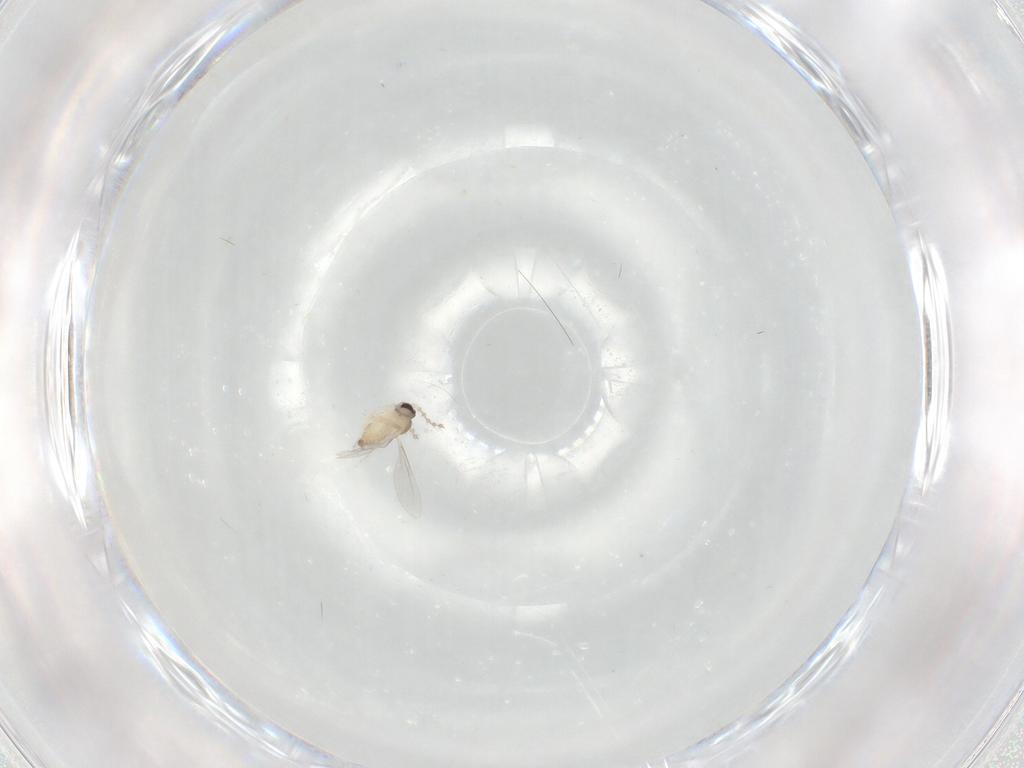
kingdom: Animalia
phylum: Arthropoda
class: Insecta
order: Diptera
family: Cecidomyiidae
